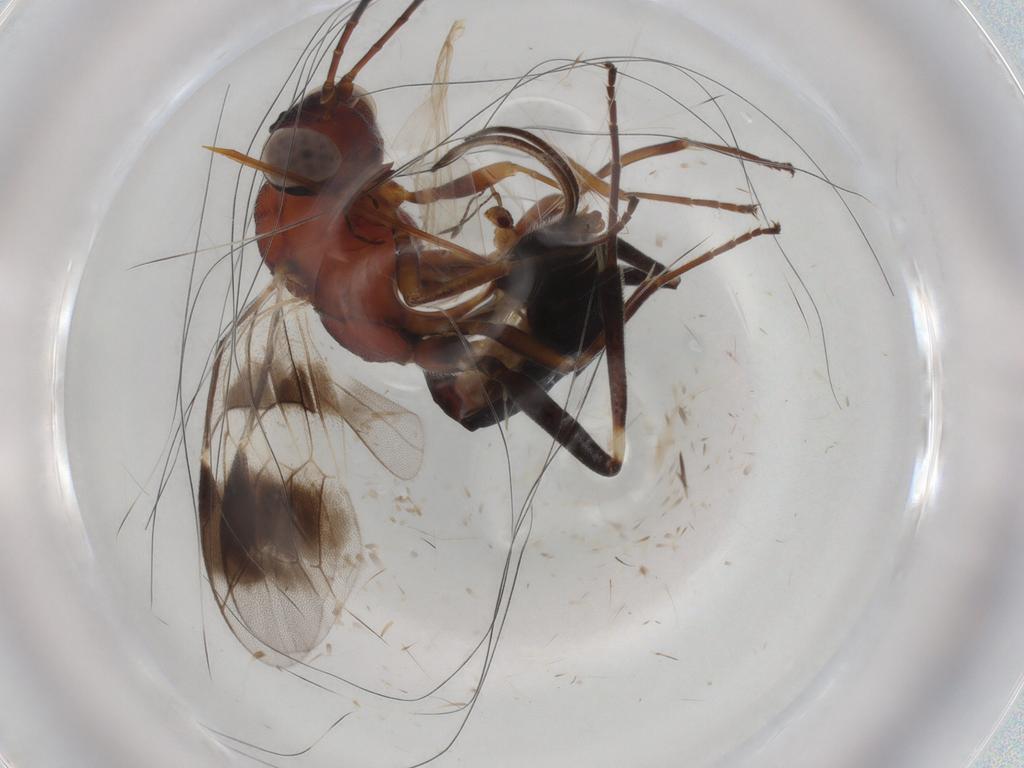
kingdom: Animalia
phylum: Arthropoda
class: Insecta
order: Hymenoptera
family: Ichneumonidae
